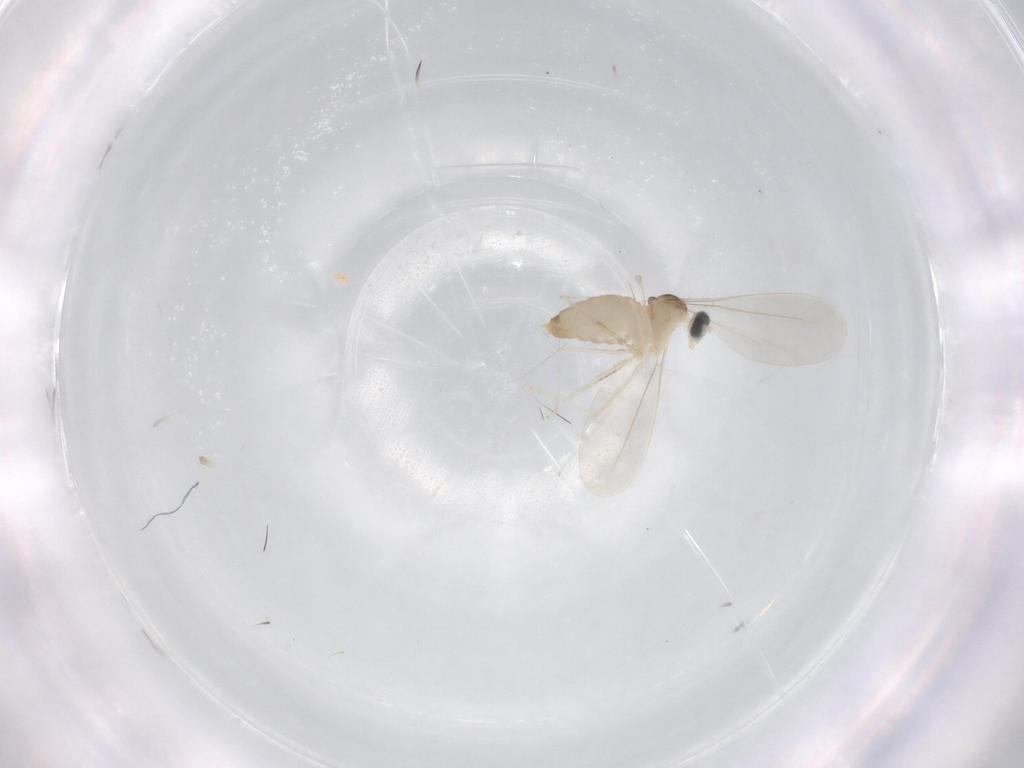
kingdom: Animalia
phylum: Arthropoda
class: Insecta
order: Diptera
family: Cecidomyiidae
